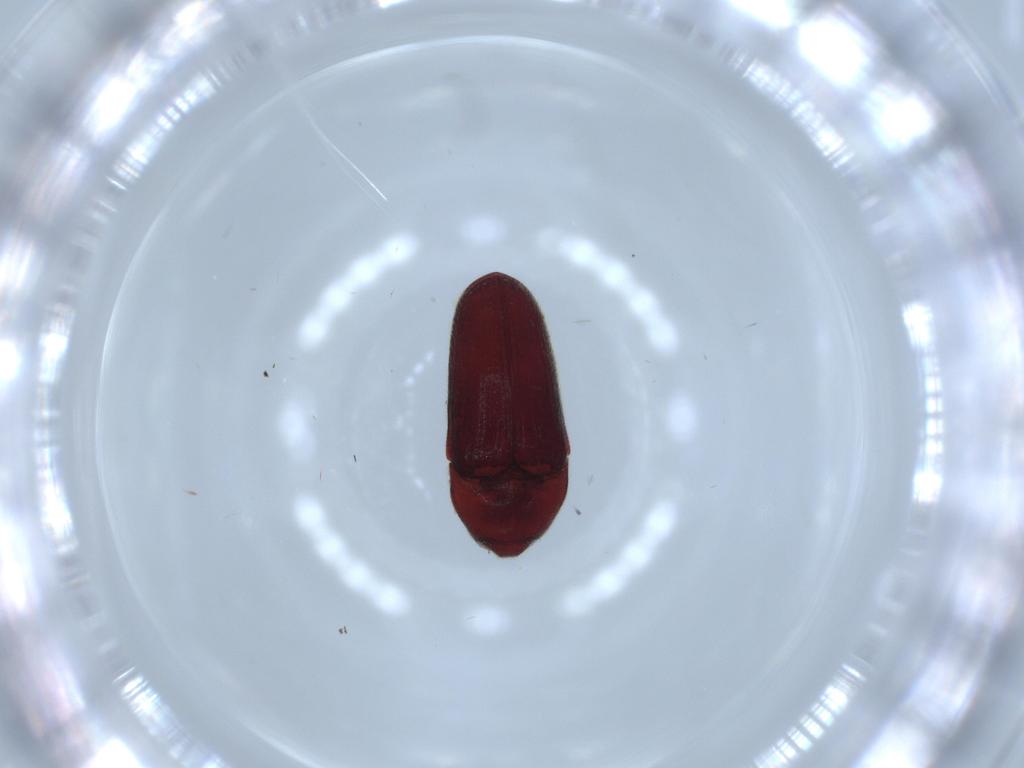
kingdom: Animalia
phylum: Arthropoda
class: Insecta
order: Coleoptera
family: Throscidae
